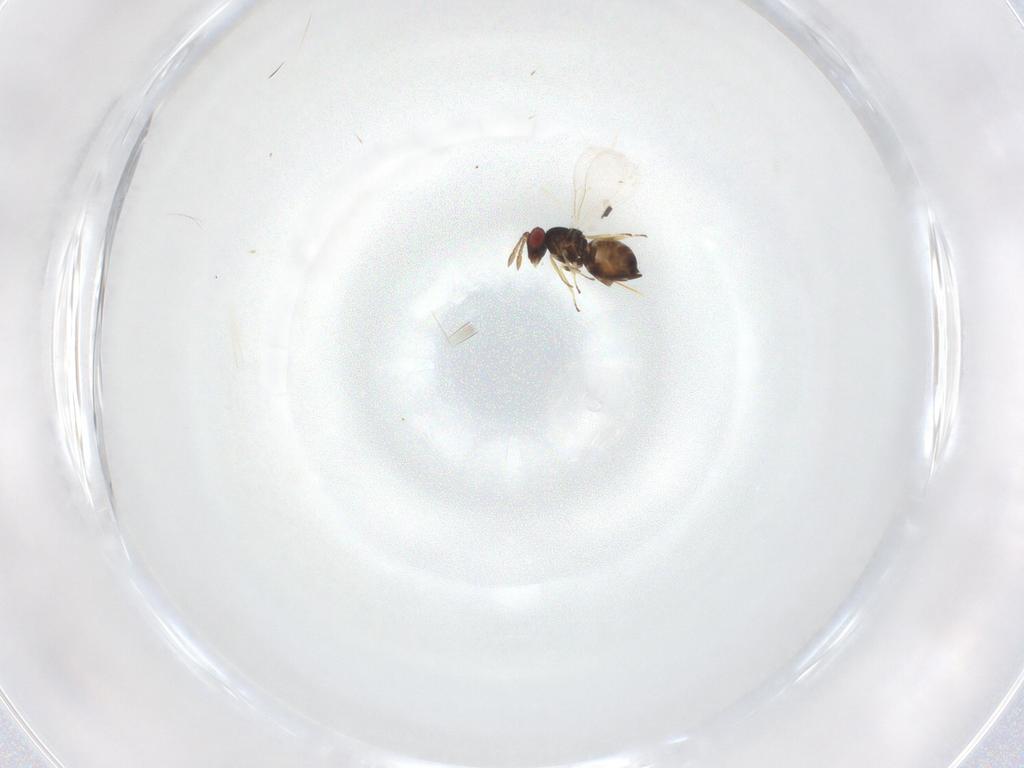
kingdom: Animalia
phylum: Arthropoda
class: Insecta
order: Hymenoptera
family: Eulophidae
